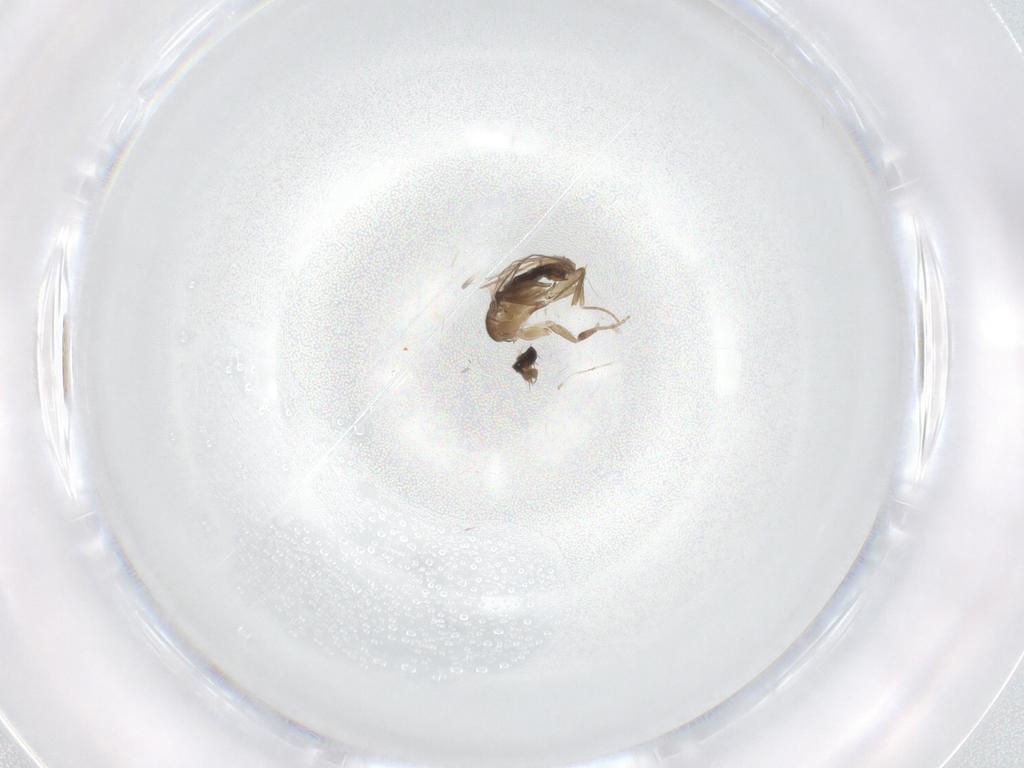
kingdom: Animalia
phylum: Arthropoda
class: Insecta
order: Diptera
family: Phoridae
